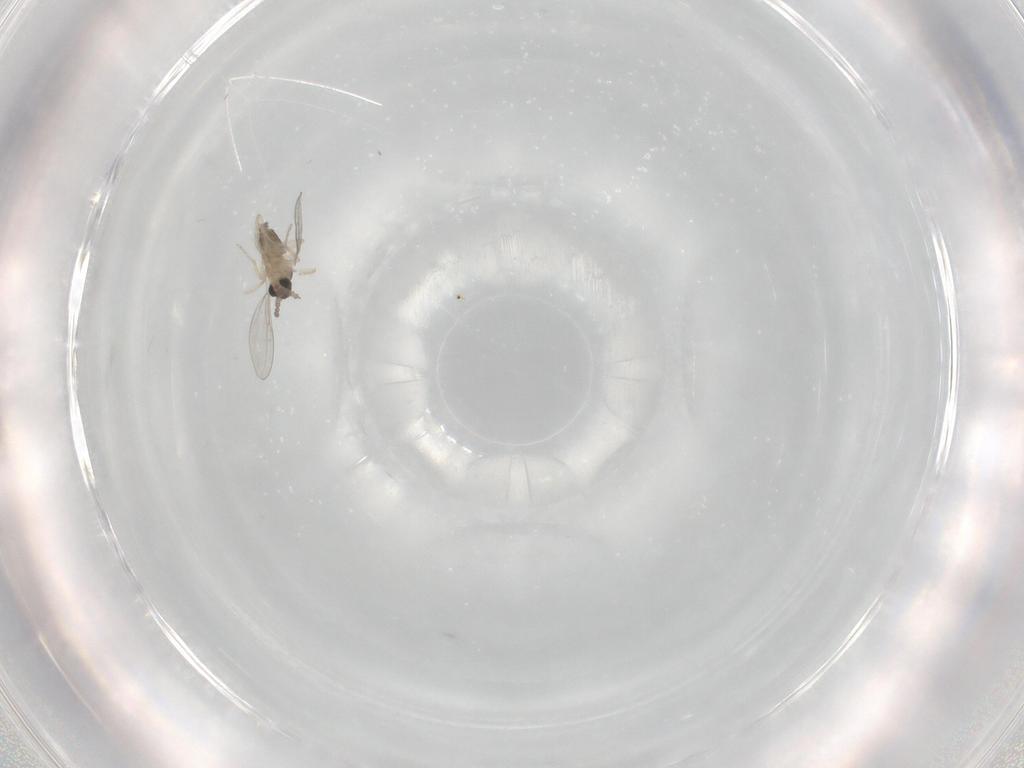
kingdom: Animalia
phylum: Arthropoda
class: Insecta
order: Diptera
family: Cecidomyiidae
